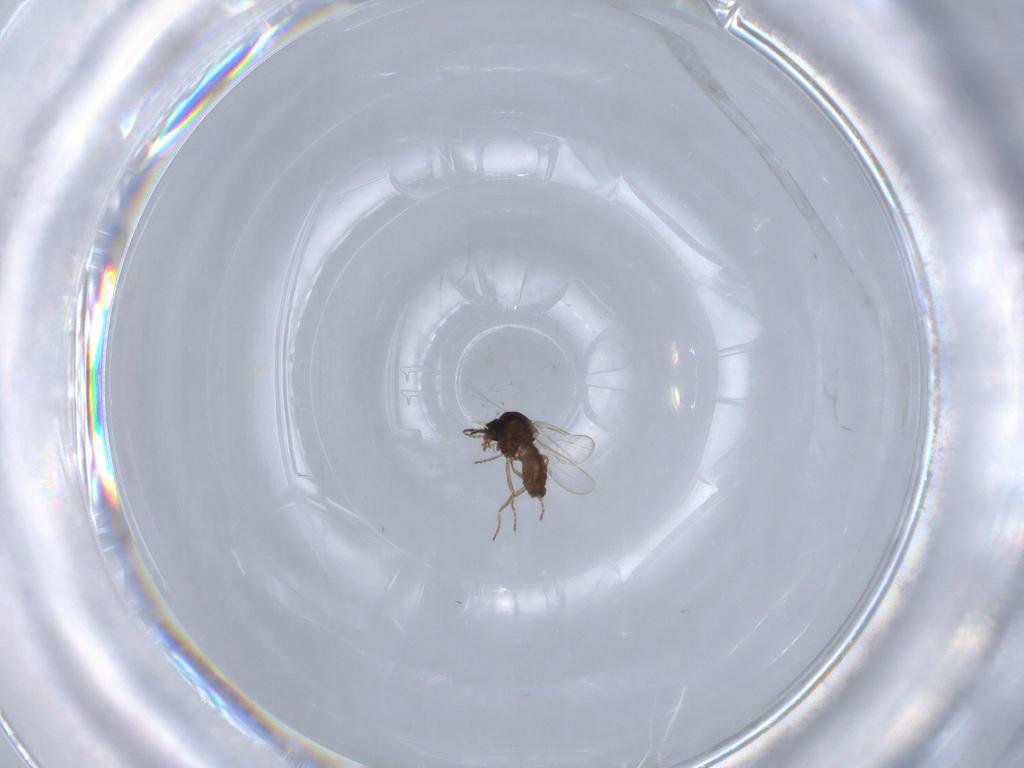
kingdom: Animalia
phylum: Arthropoda
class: Insecta
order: Diptera
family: Ceratopogonidae
